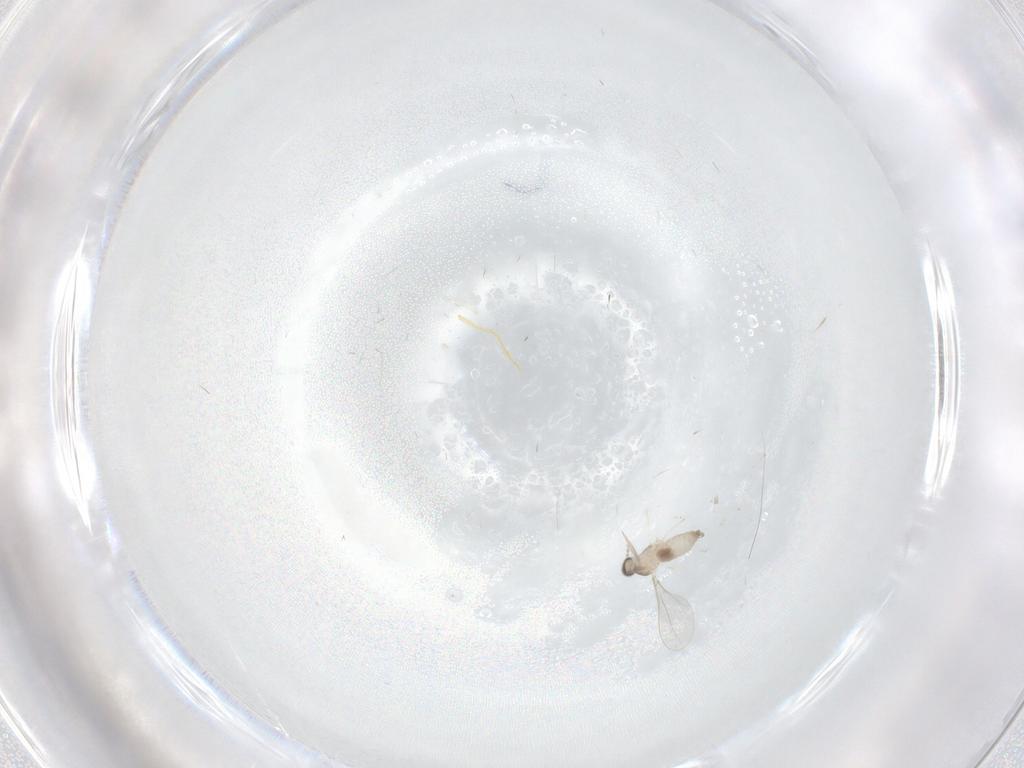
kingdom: Animalia
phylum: Arthropoda
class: Insecta
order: Diptera
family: Cecidomyiidae
